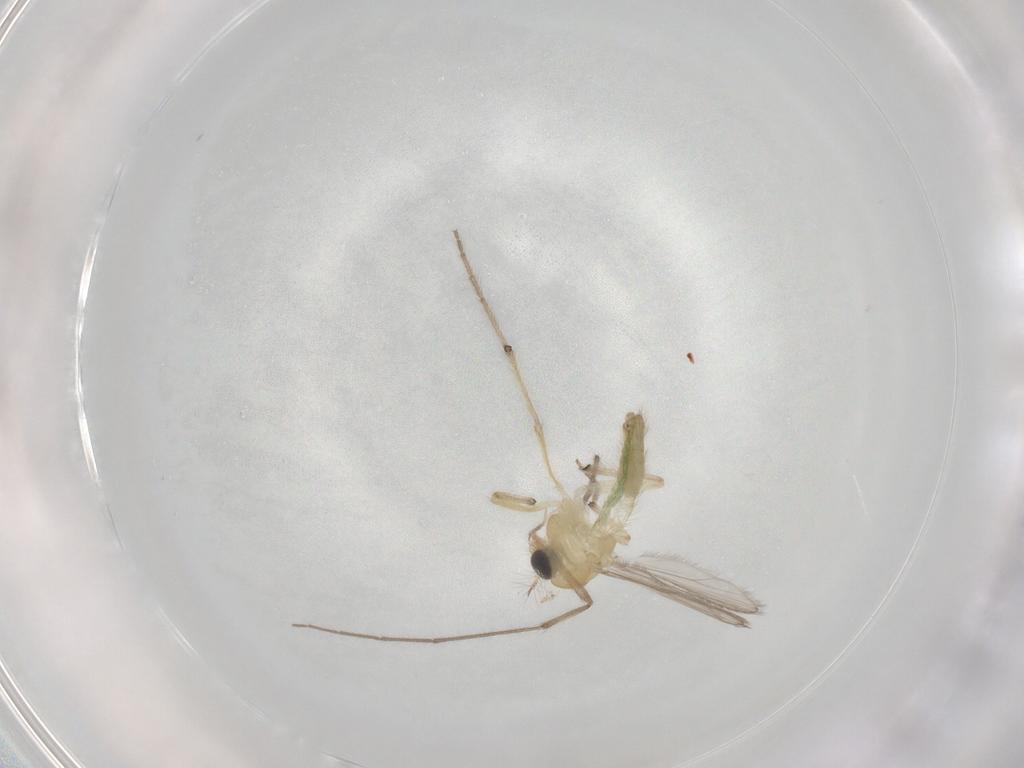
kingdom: Animalia
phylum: Arthropoda
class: Insecta
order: Diptera
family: Chironomidae
